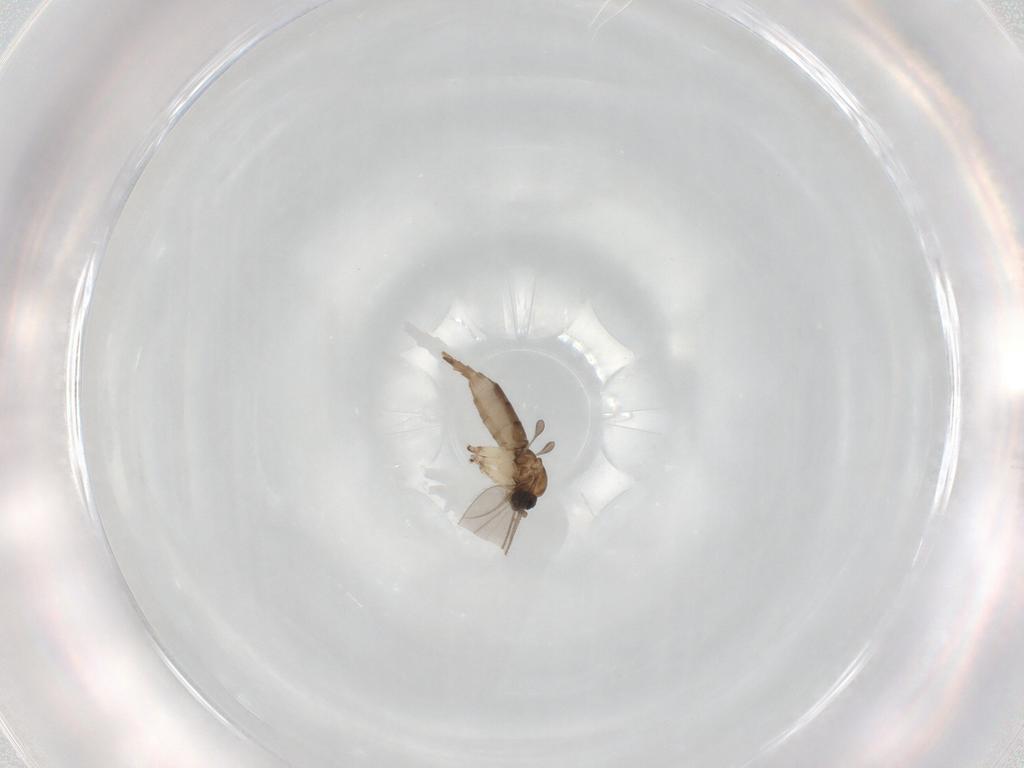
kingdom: Animalia
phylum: Arthropoda
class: Insecta
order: Diptera
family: Sciaridae
